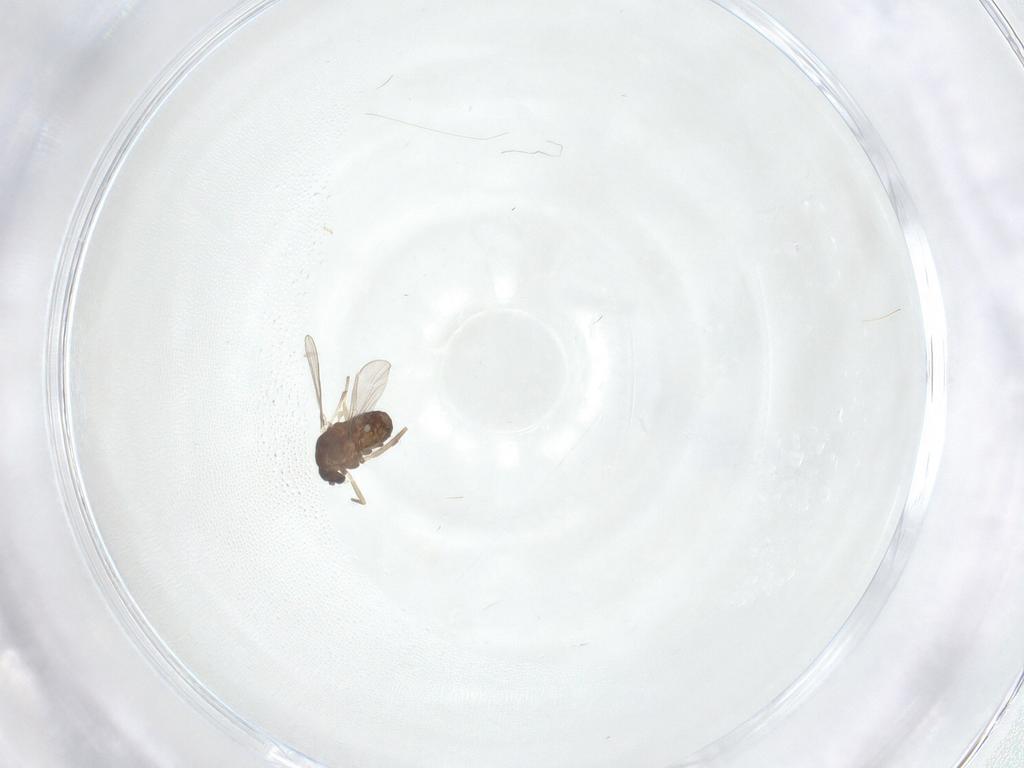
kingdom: Animalia
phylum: Arthropoda
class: Insecta
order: Diptera
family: Chironomidae
